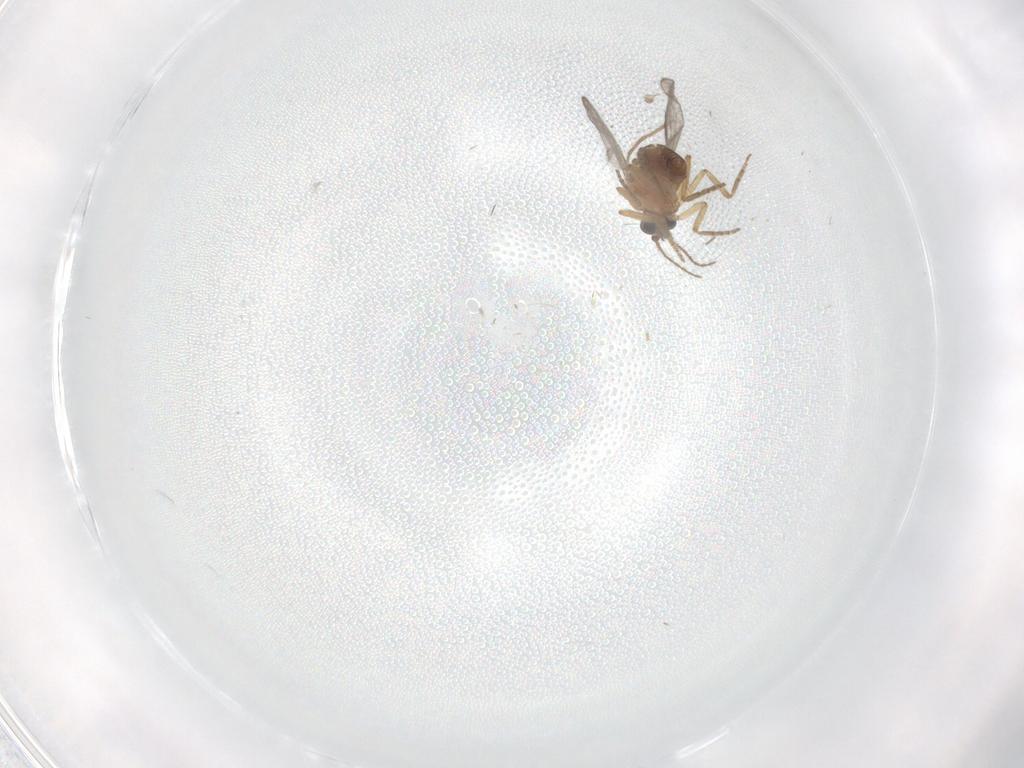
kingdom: Animalia
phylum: Arthropoda
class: Insecta
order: Diptera
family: Ceratopogonidae
